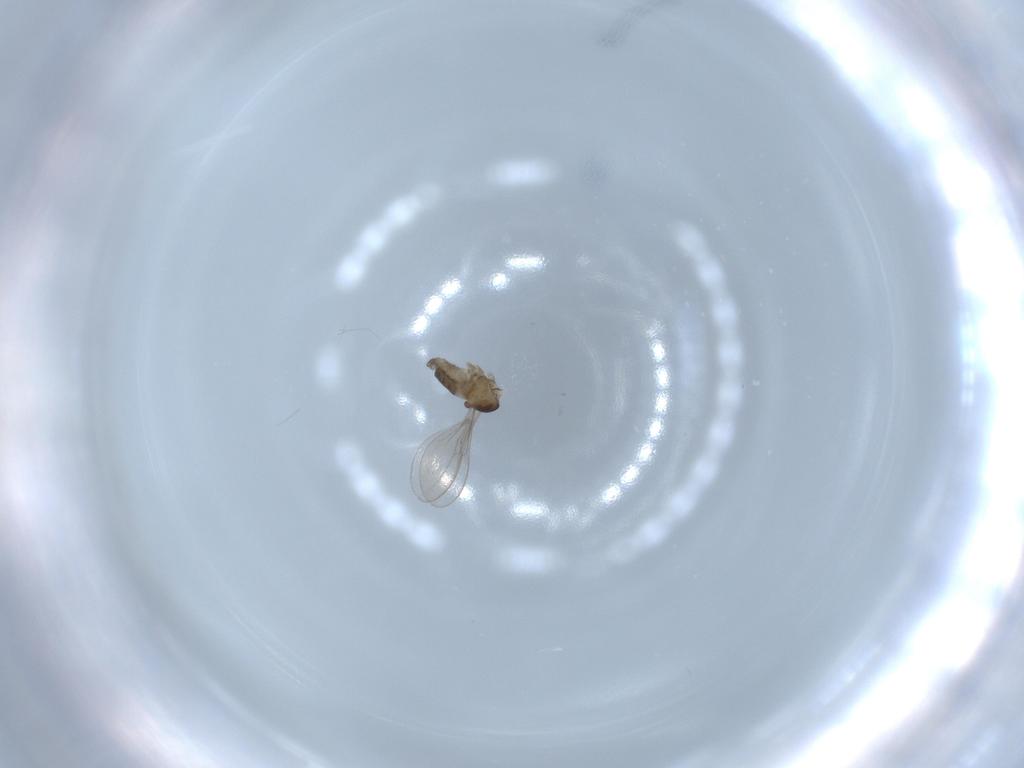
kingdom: Animalia
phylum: Arthropoda
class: Insecta
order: Diptera
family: Cecidomyiidae
